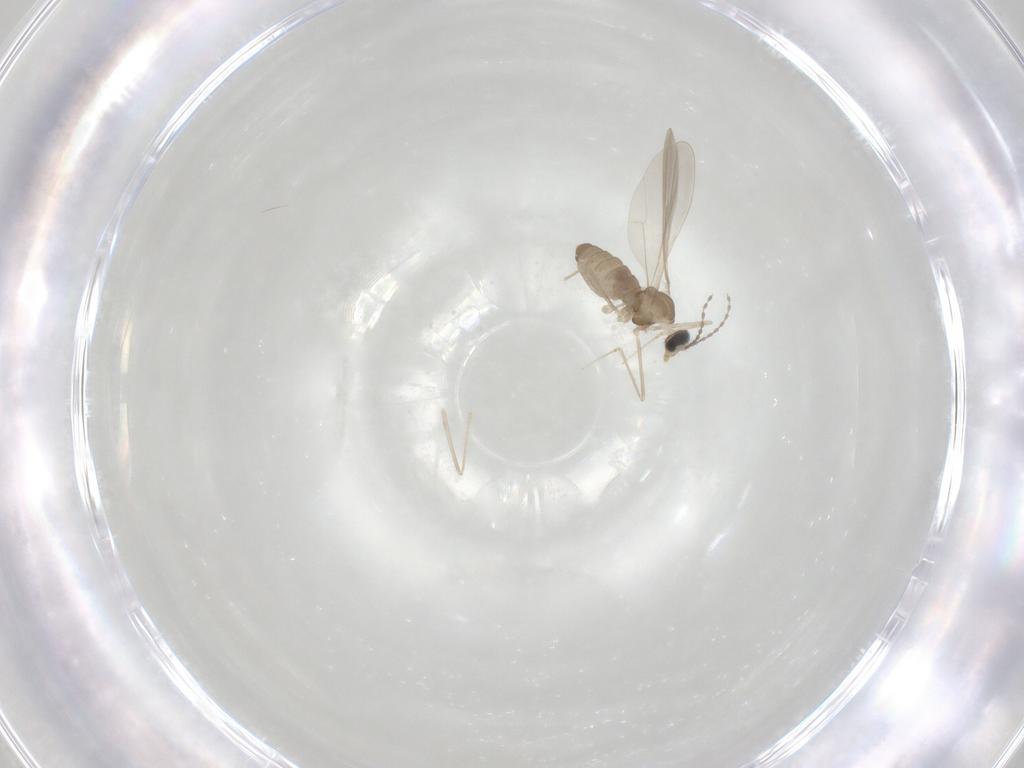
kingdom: Animalia
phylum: Arthropoda
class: Insecta
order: Diptera
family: Cecidomyiidae
